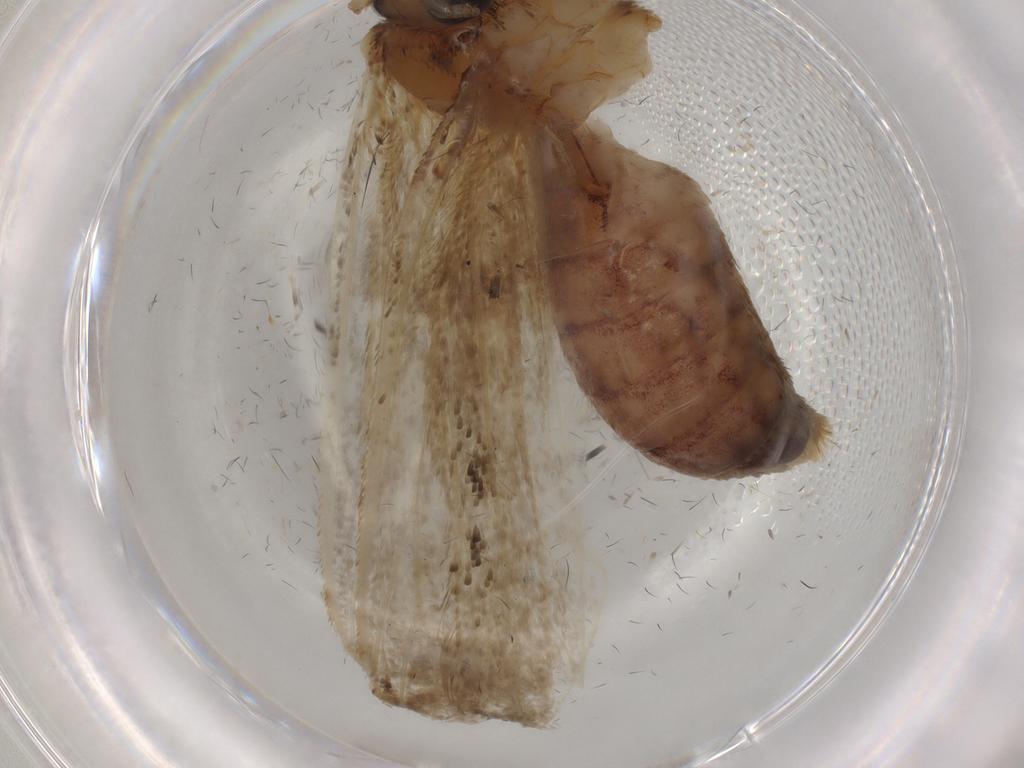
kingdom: Animalia
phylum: Arthropoda
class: Insecta
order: Lepidoptera
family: Tineidae
